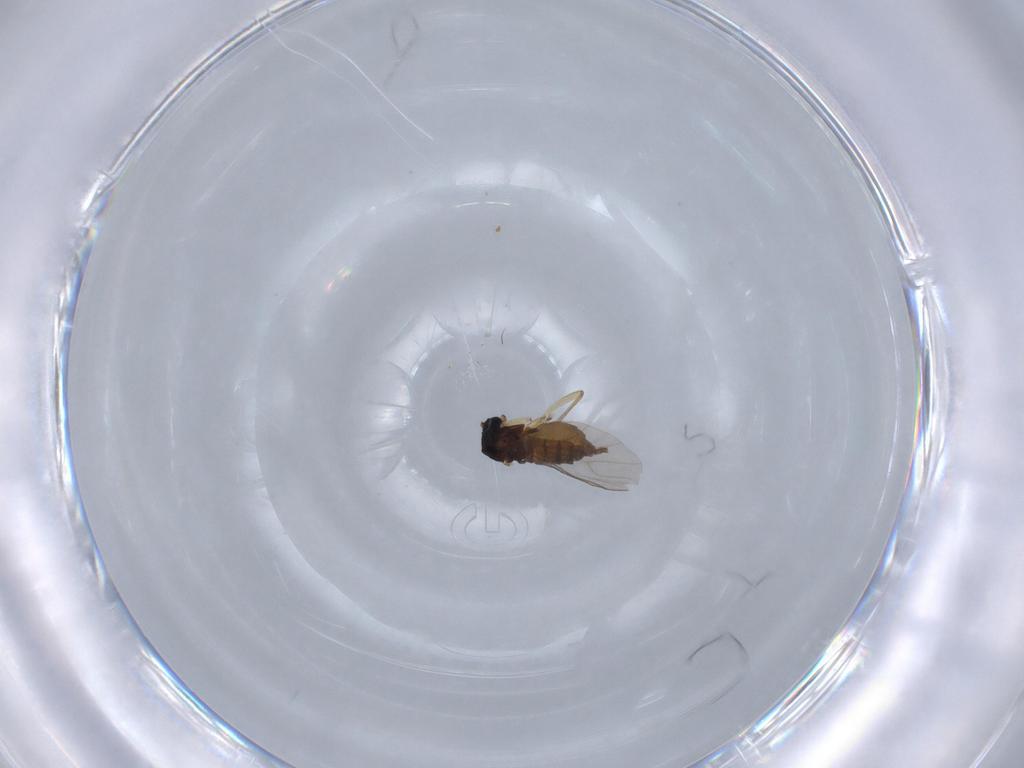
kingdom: Animalia
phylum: Arthropoda
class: Insecta
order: Diptera
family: Sciaridae
